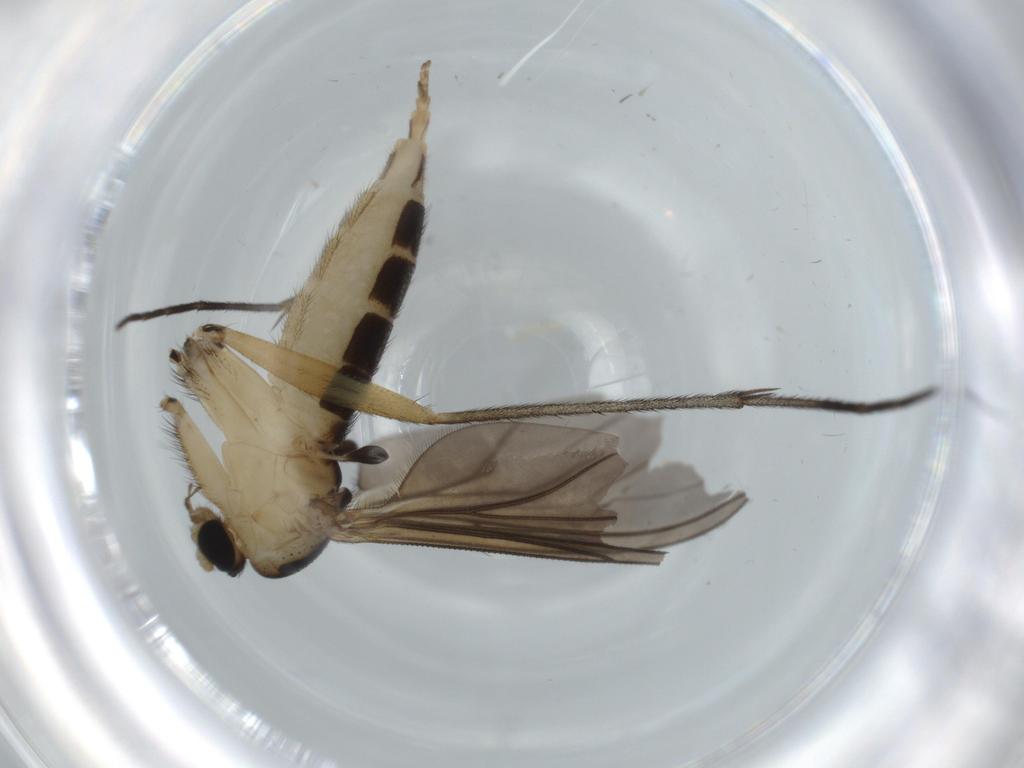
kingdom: Animalia
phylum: Arthropoda
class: Insecta
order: Diptera
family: Sciaridae
